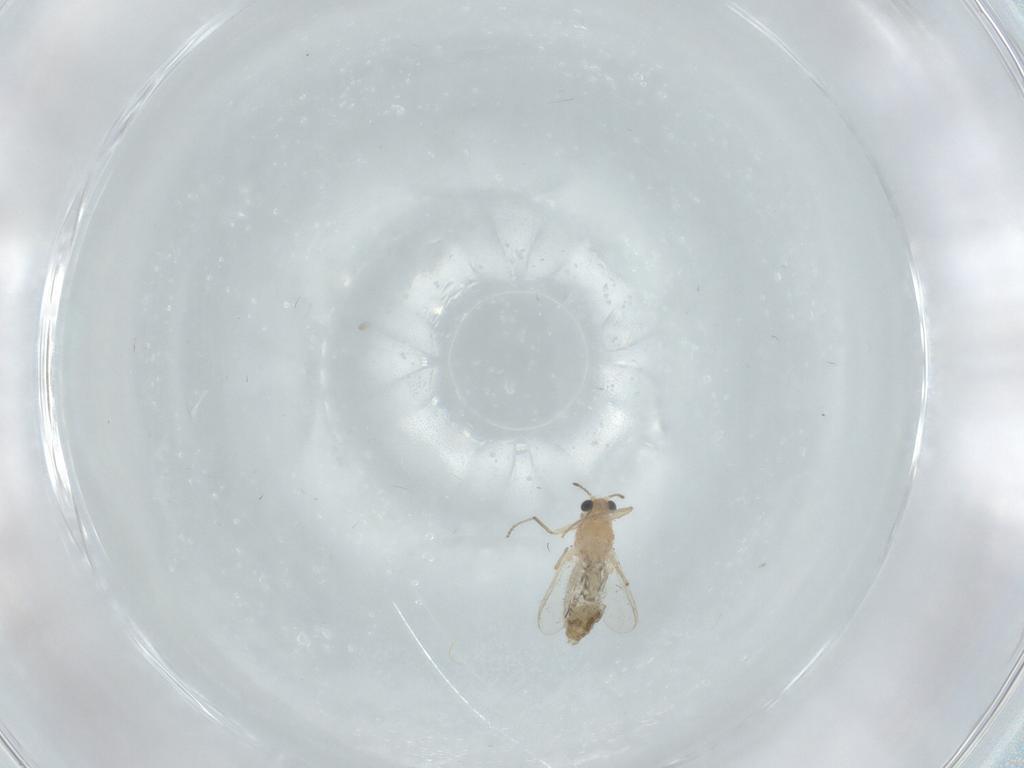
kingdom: Animalia
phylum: Arthropoda
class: Insecta
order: Diptera
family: Chironomidae
